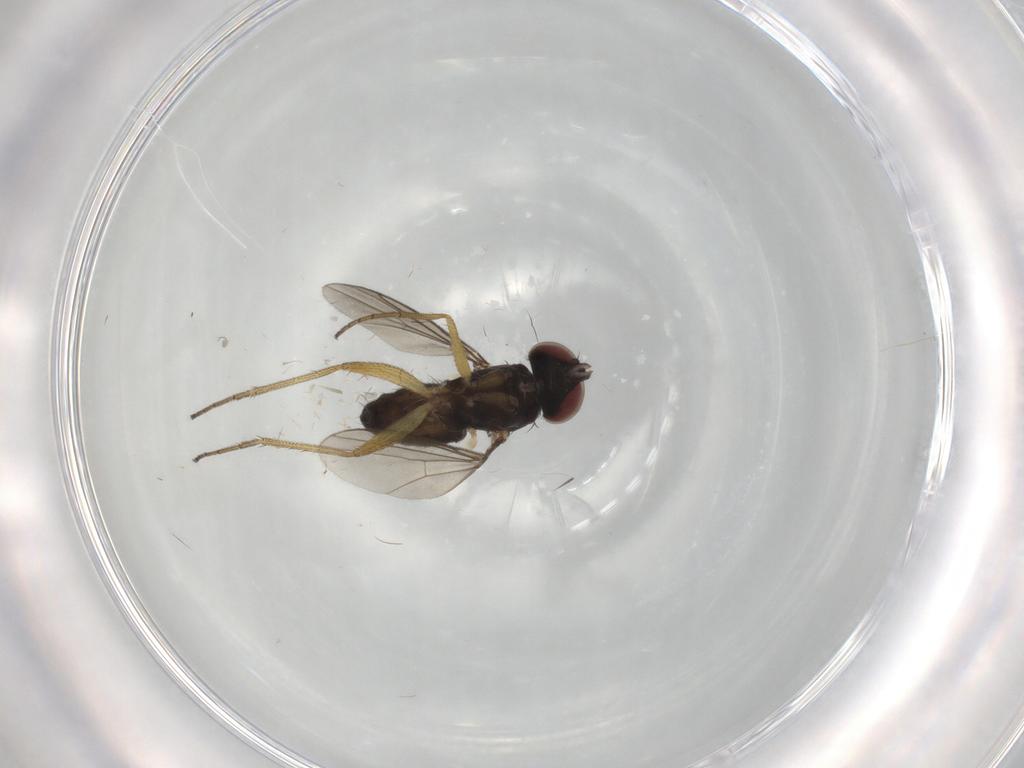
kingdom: Animalia
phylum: Arthropoda
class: Insecta
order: Diptera
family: Dolichopodidae
